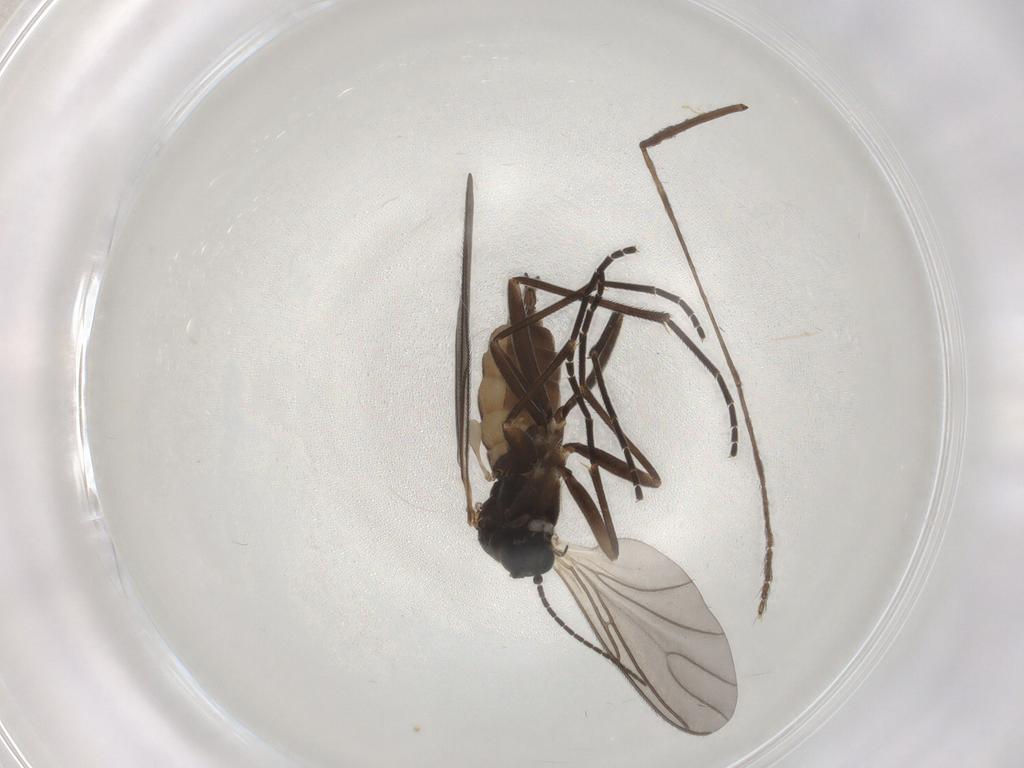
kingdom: Animalia
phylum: Arthropoda
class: Insecta
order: Diptera
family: Sciaridae
